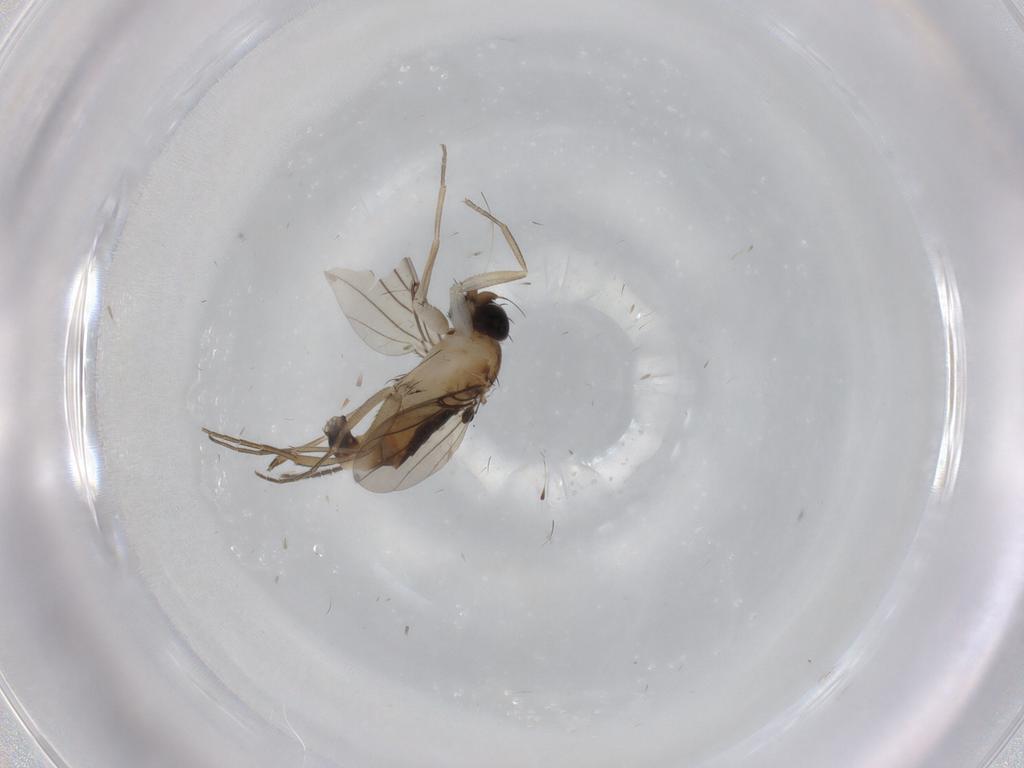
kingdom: Animalia
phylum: Arthropoda
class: Insecta
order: Diptera
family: Phoridae
